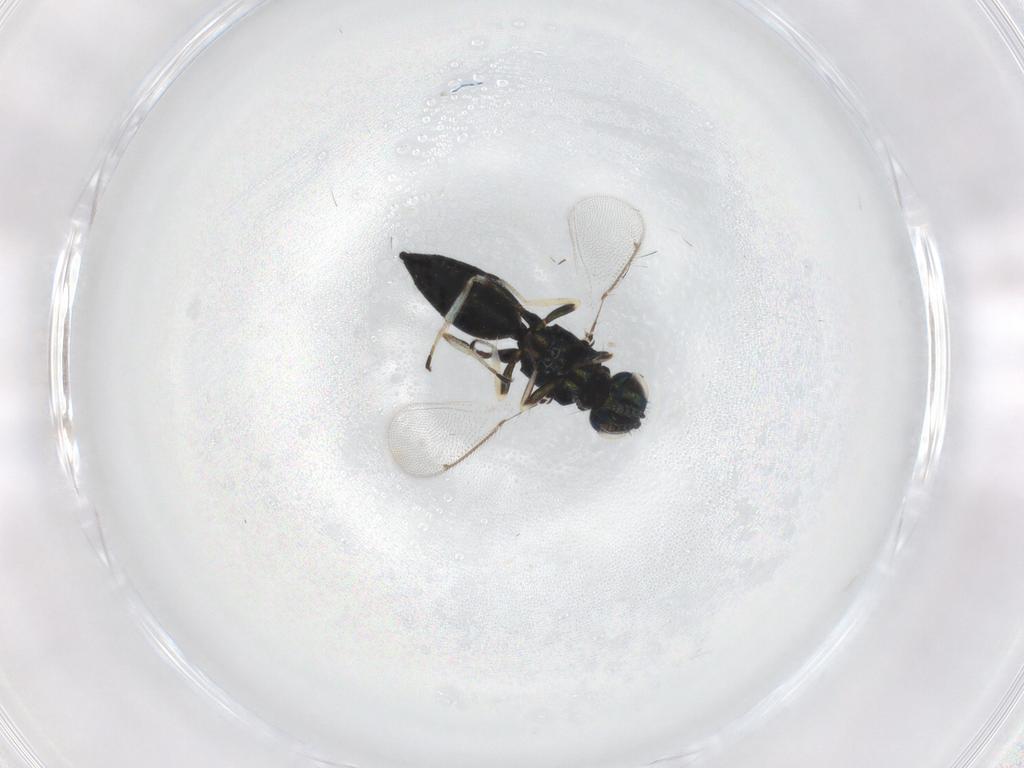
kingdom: Animalia
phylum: Arthropoda
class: Insecta
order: Hymenoptera
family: Eulophidae
